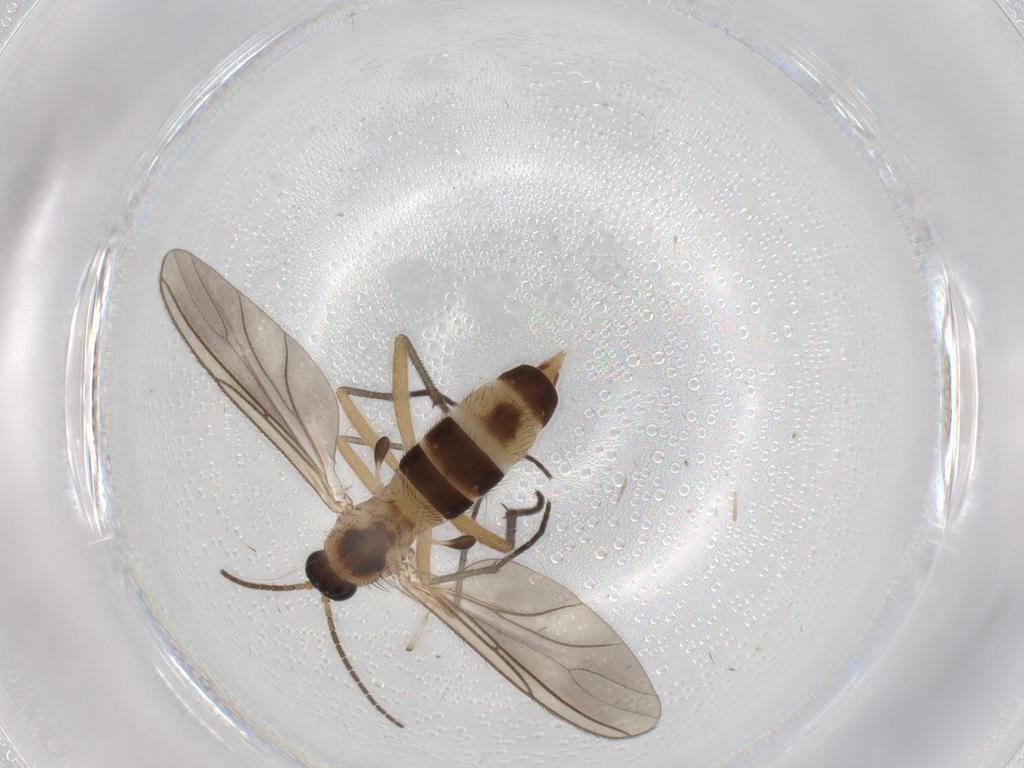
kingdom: Animalia
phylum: Arthropoda
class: Insecta
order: Diptera
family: Sciaridae
